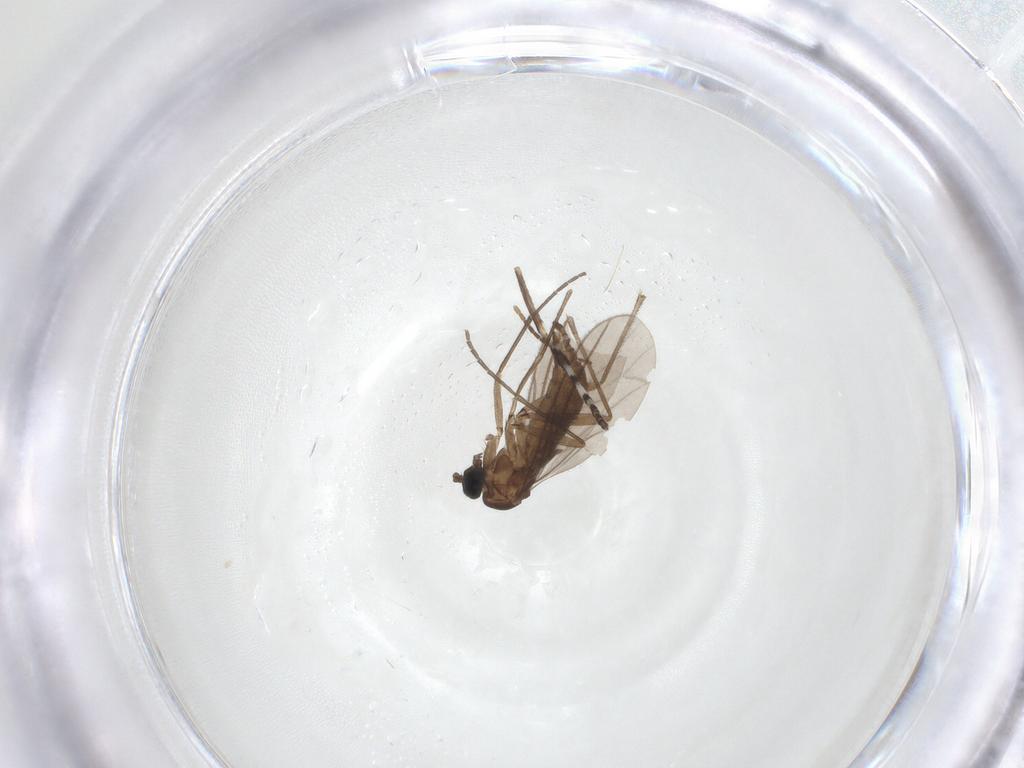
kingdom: Animalia
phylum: Arthropoda
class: Insecta
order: Diptera
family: Sciaridae
